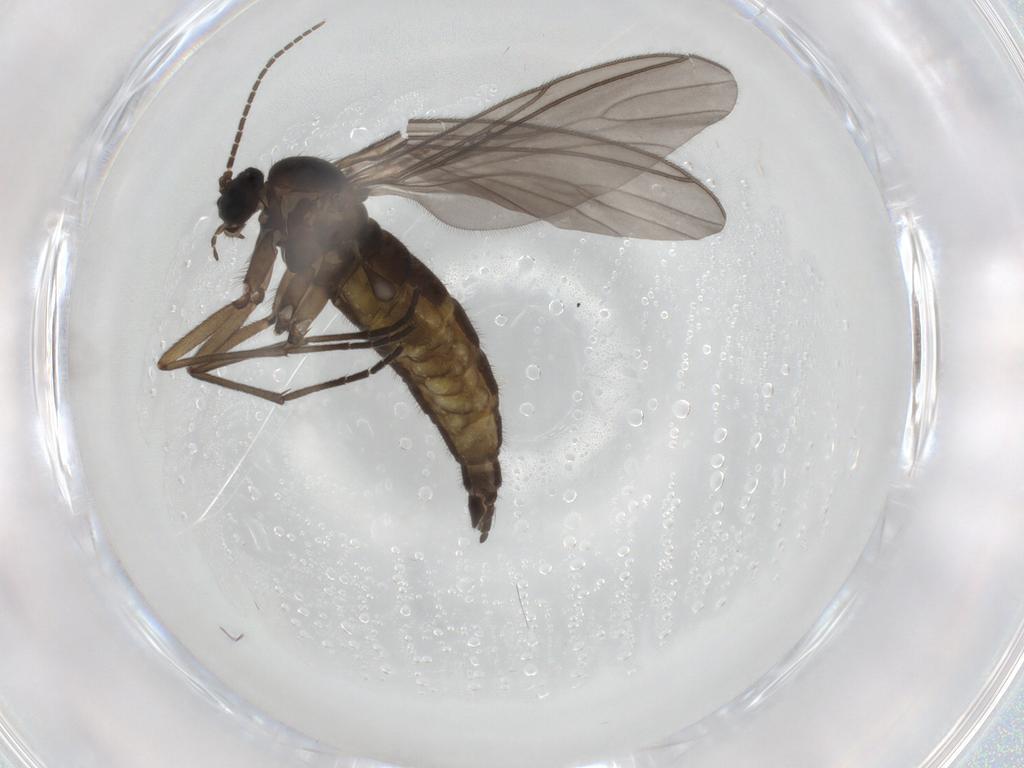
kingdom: Animalia
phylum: Arthropoda
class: Insecta
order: Diptera
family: Sciaridae
